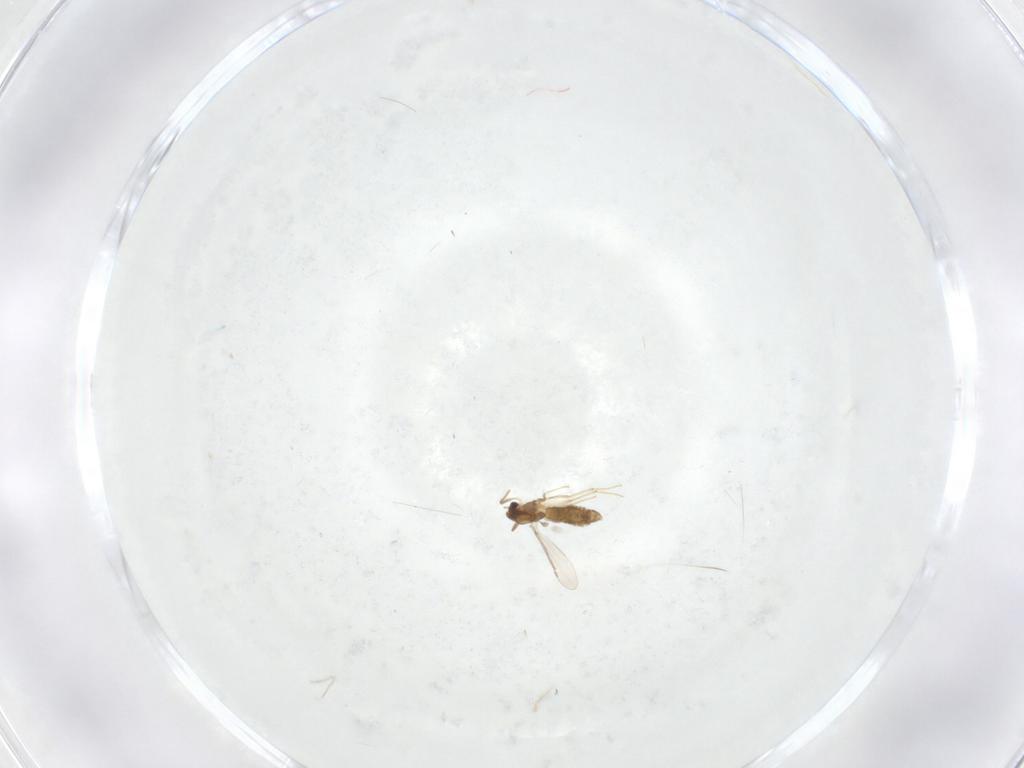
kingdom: Animalia
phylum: Arthropoda
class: Insecta
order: Diptera
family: Chironomidae
